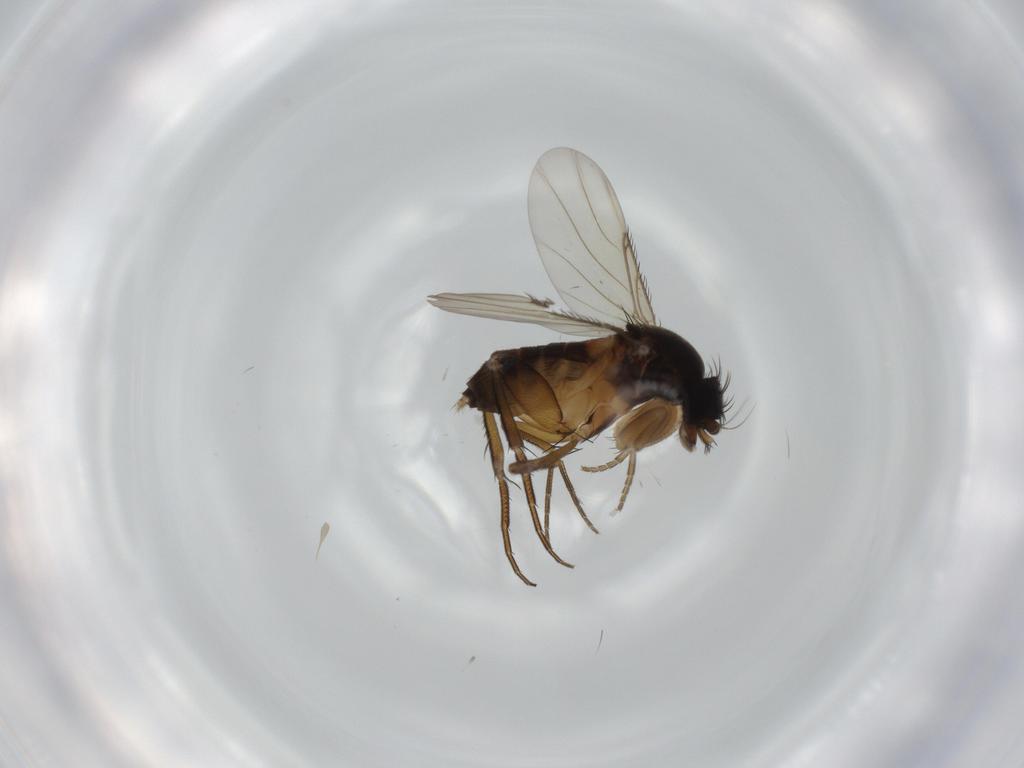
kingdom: Animalia
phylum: Arthropoda
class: Insecta
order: Diptera
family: Phoridae
